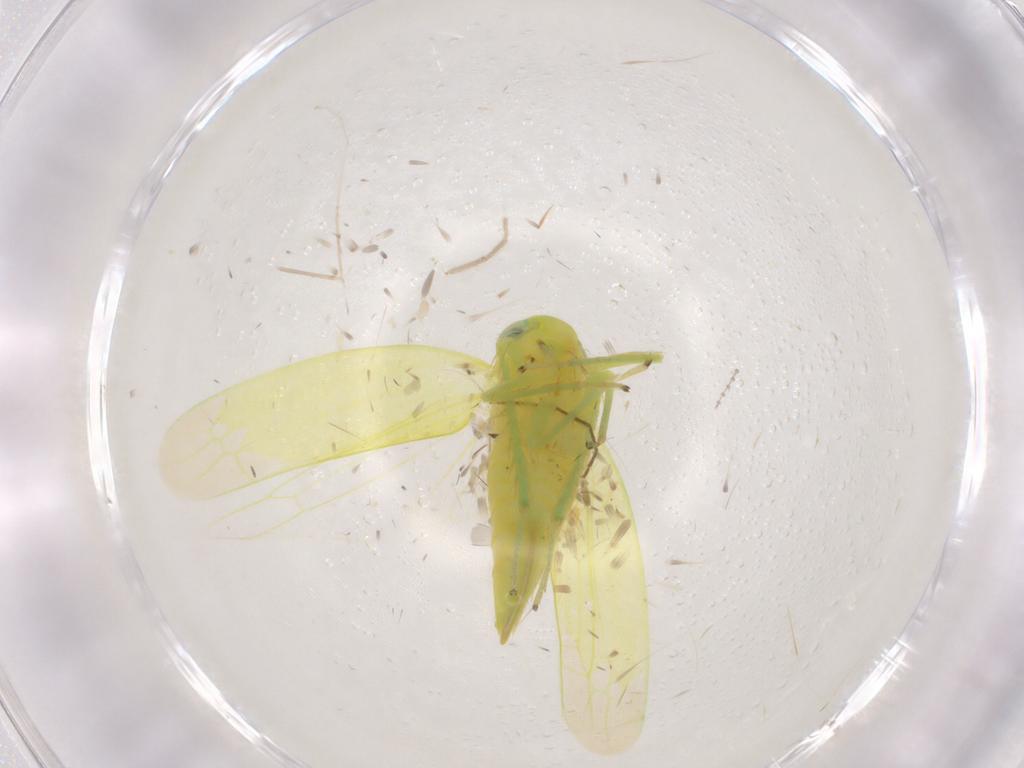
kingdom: Animalia
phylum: Arthropoda
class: Insecta
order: Hemiptera
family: Cicadellidae
